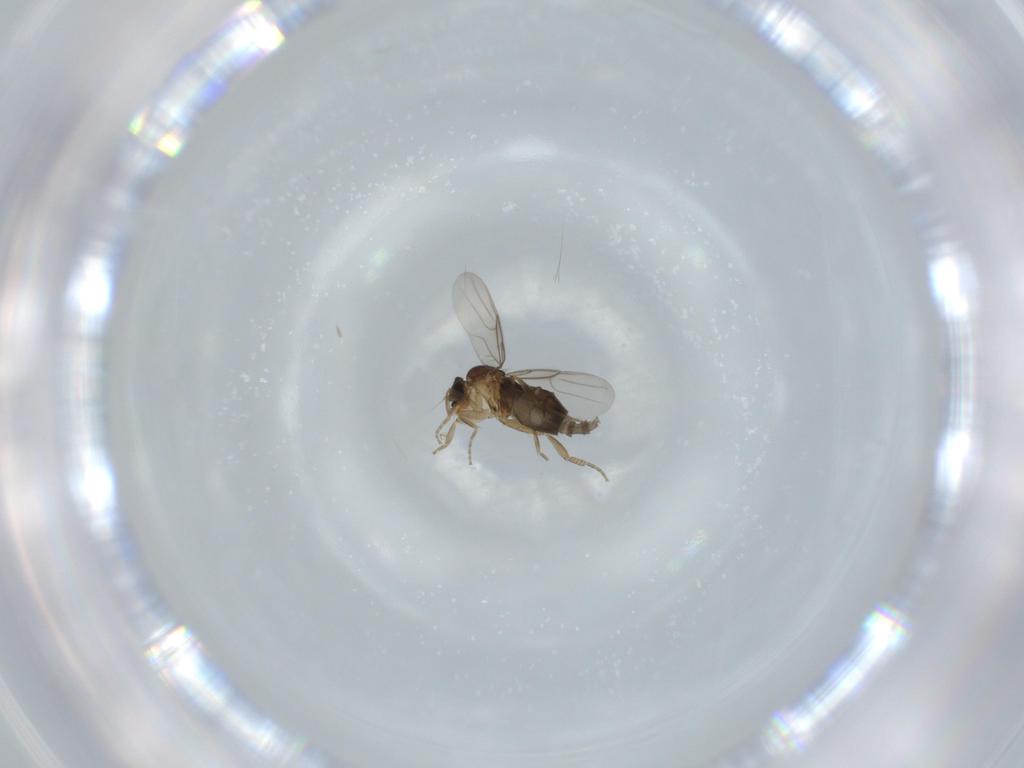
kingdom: Animalia
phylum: Arthropoda
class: Insecta
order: Diptera
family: Phoridae
